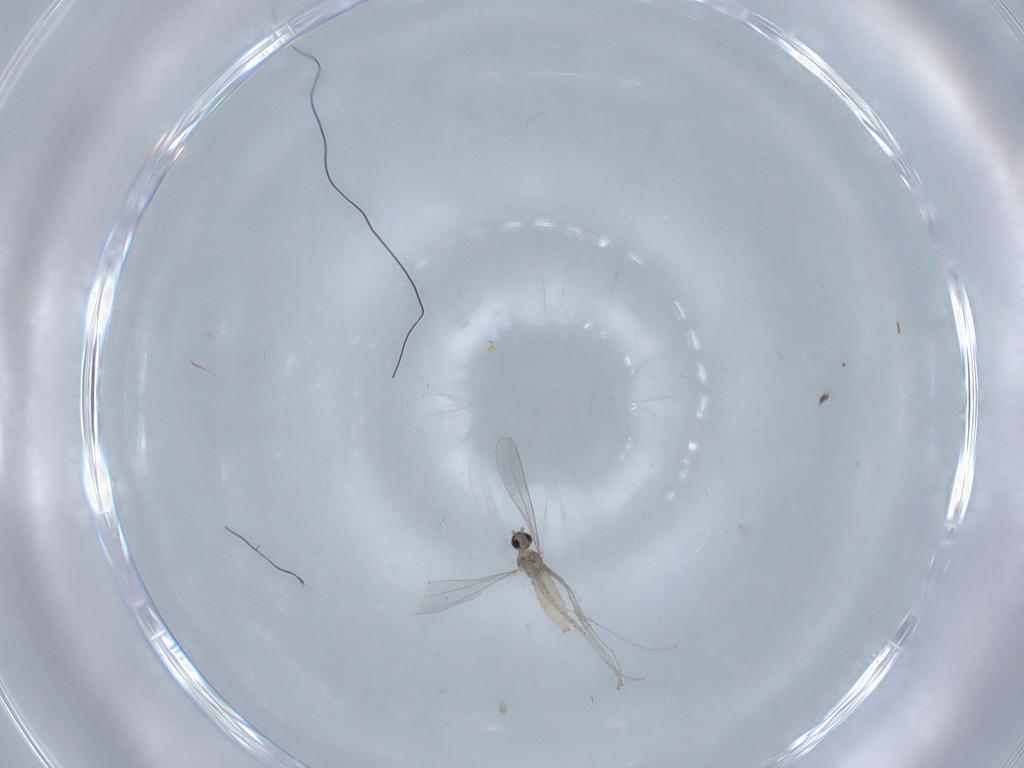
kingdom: Animalia
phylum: Arthropoda
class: Insecta
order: Diptera
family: Cecidomyiidae
